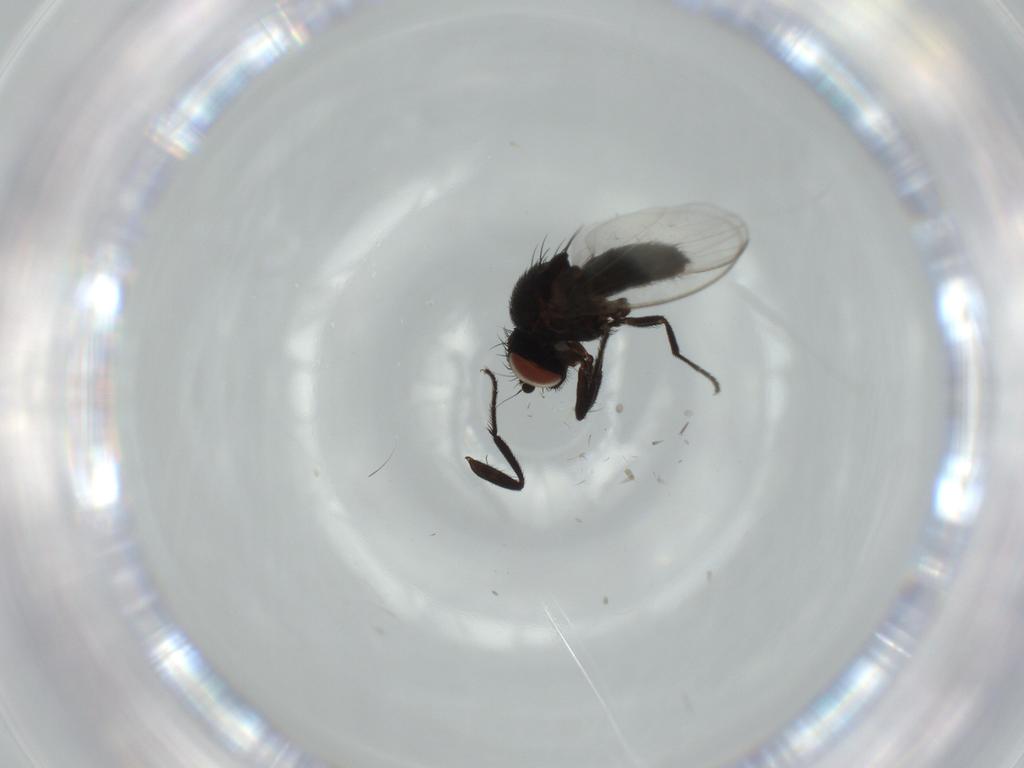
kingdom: Animalia
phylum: Arthropoda
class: Insecta
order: Diptera
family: Milichiidae
